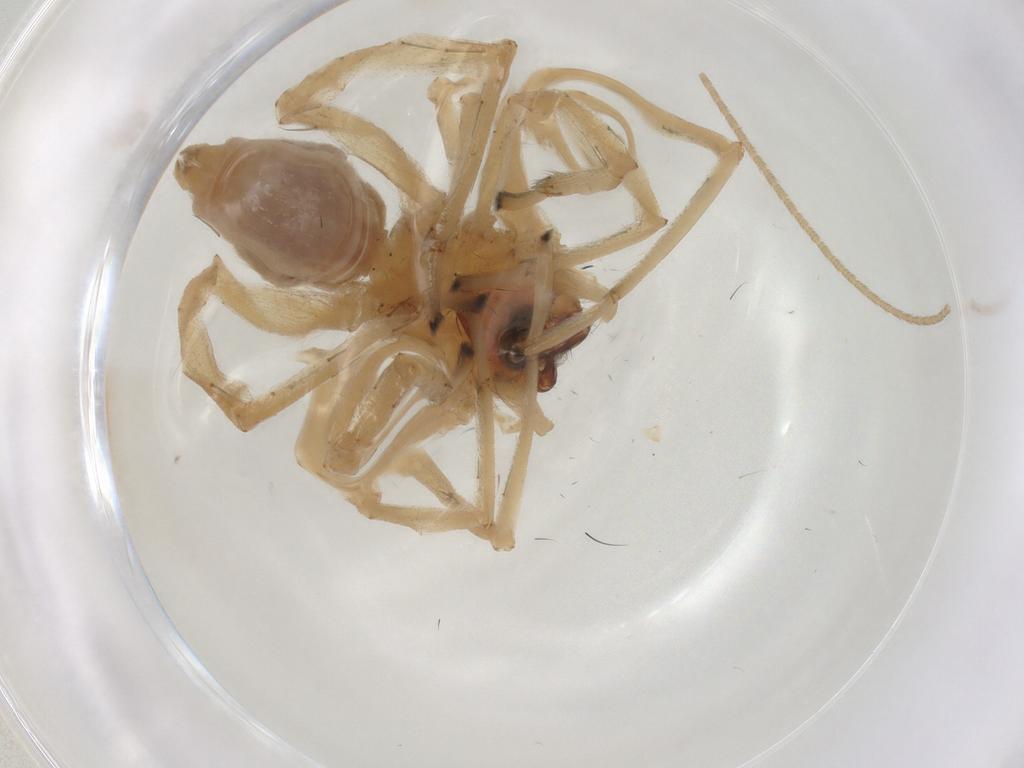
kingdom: Animalia
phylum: Arthropoda
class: Arachnida
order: Araneae
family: Cheiracanthiidae
